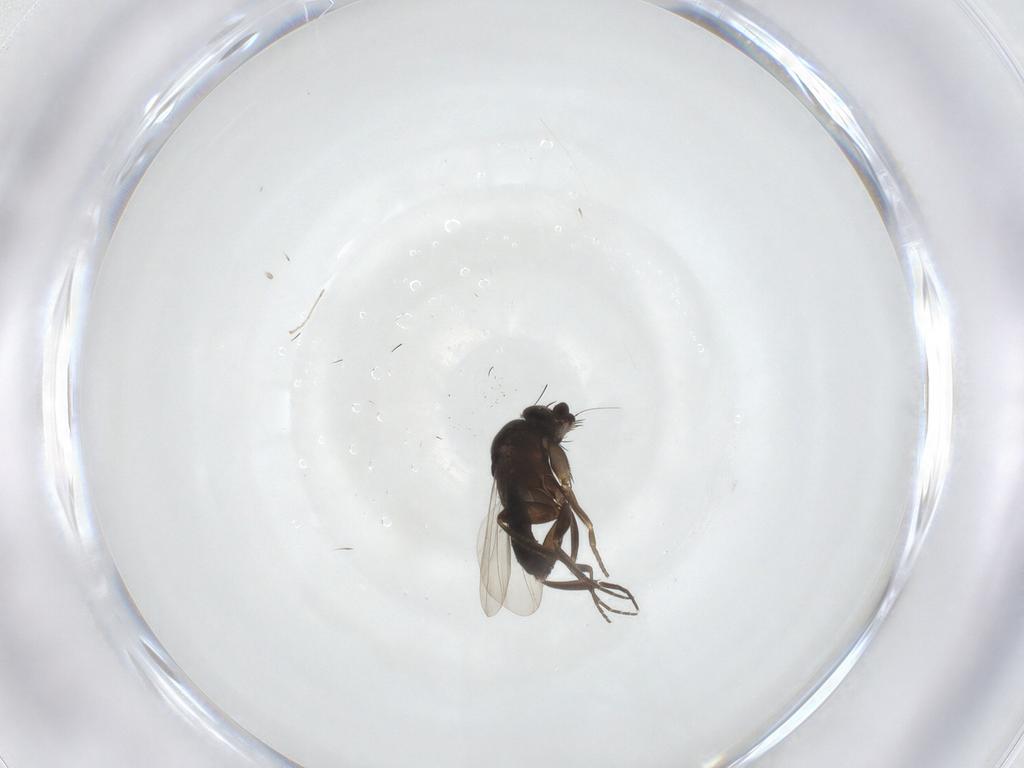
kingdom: Animalia
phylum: Arthropoda
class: Insecta
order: Diptera
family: Cecidomyiidae
